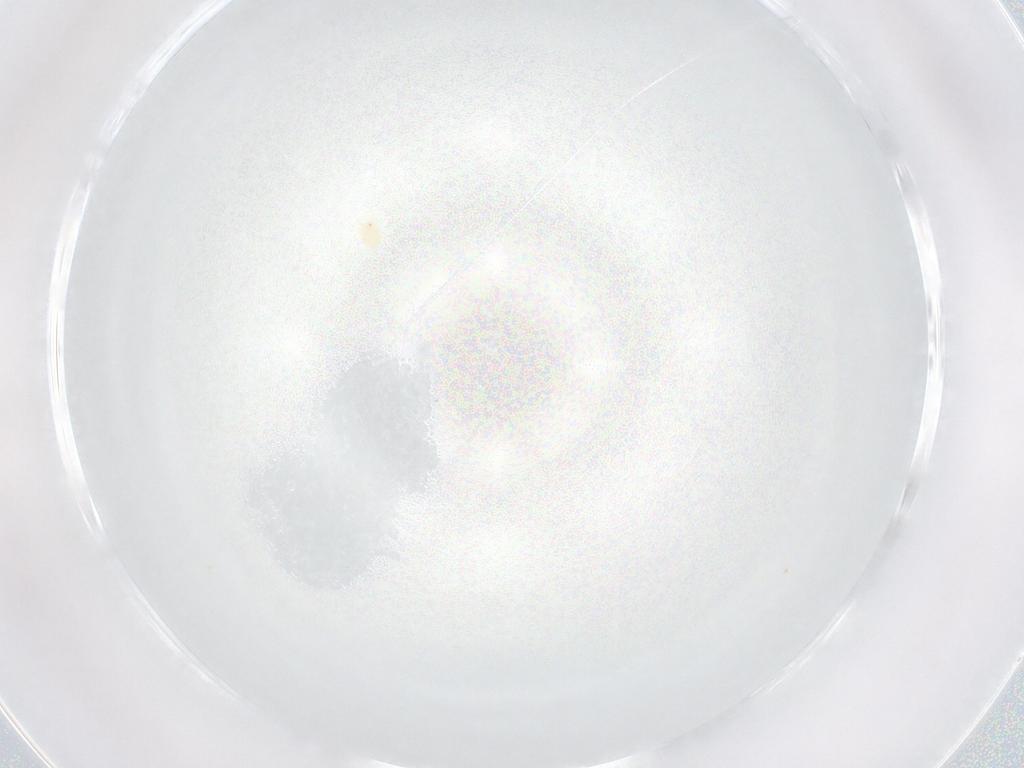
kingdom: Animalia
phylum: Arthropoda
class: Arachnida
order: Trombidiformes
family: Tetranychidae
